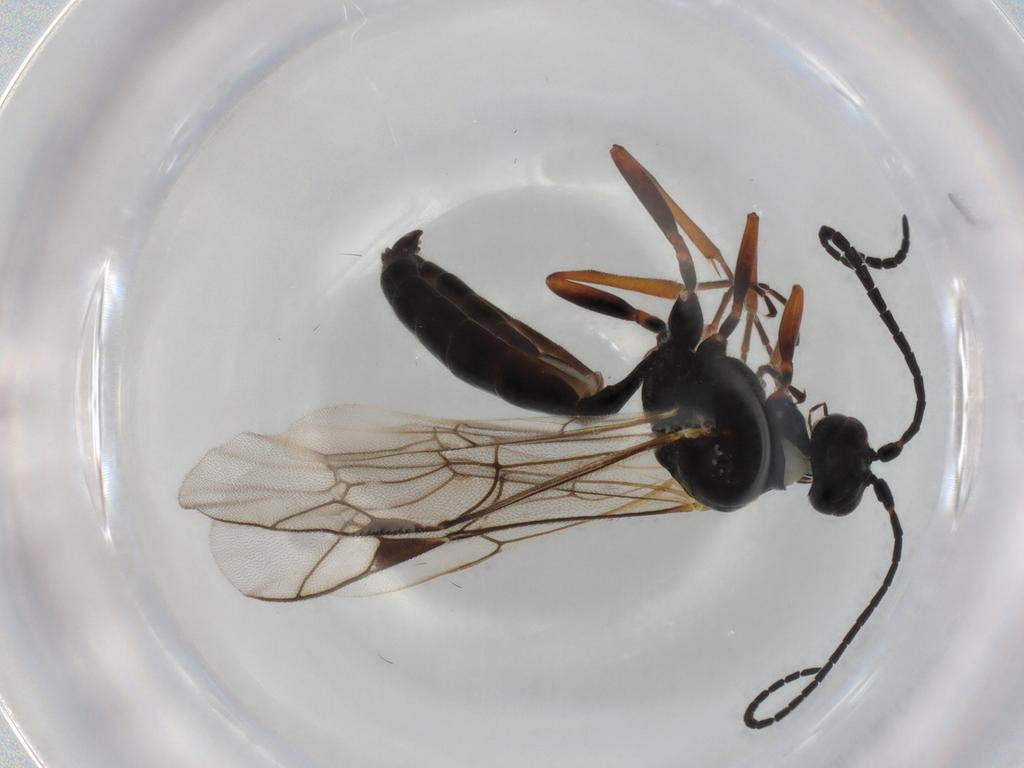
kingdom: Animalia
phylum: Arthropoda
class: Insecta
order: Hymenoptera
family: Ichneumonidae
